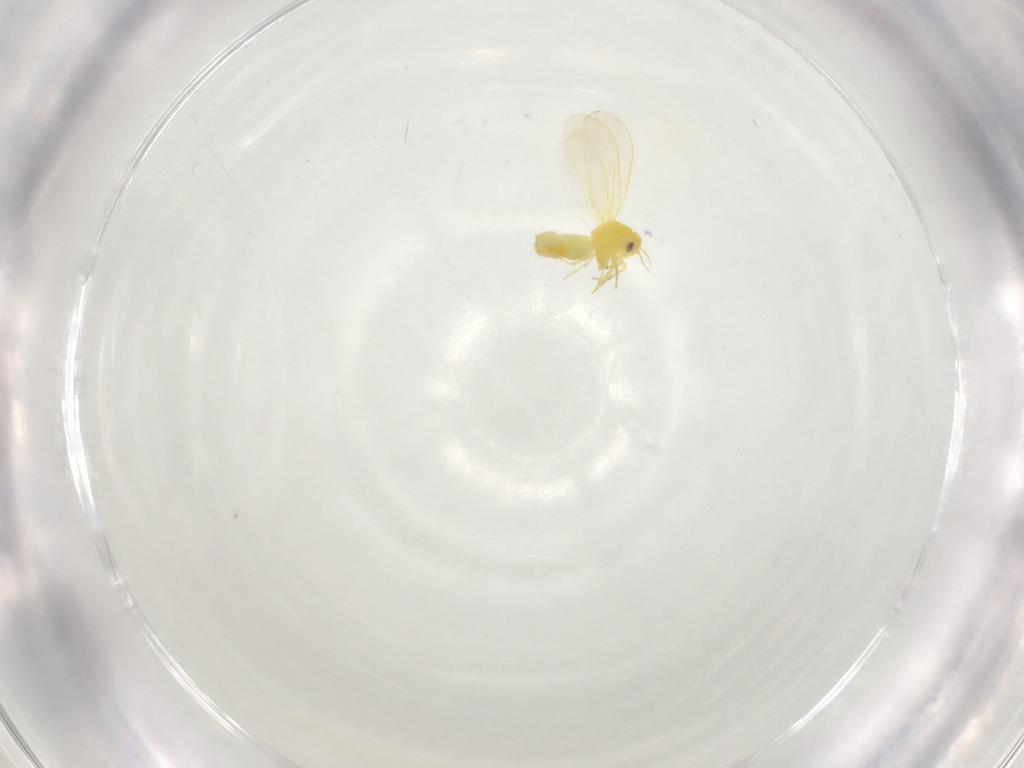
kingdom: Animalia
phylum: Arthropoda
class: Insecta
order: Hemiptera
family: Aleyrodidae
